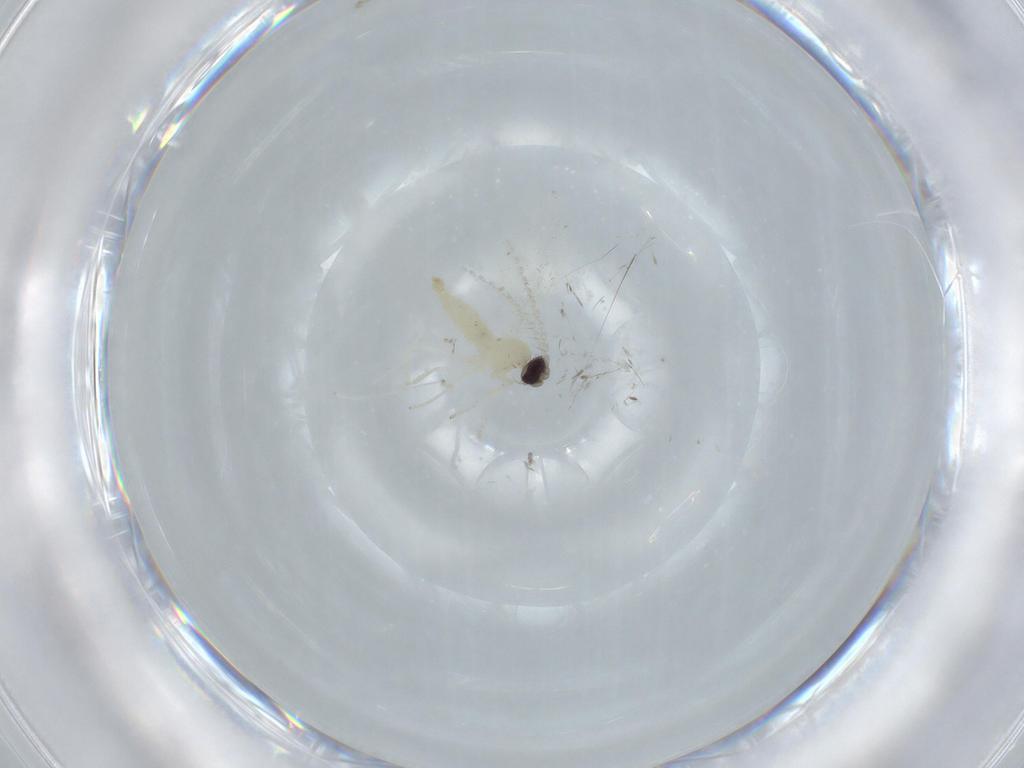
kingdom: Animalia
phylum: Arthropoda
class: Insecta
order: Diptera
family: Cecidomyiidae
